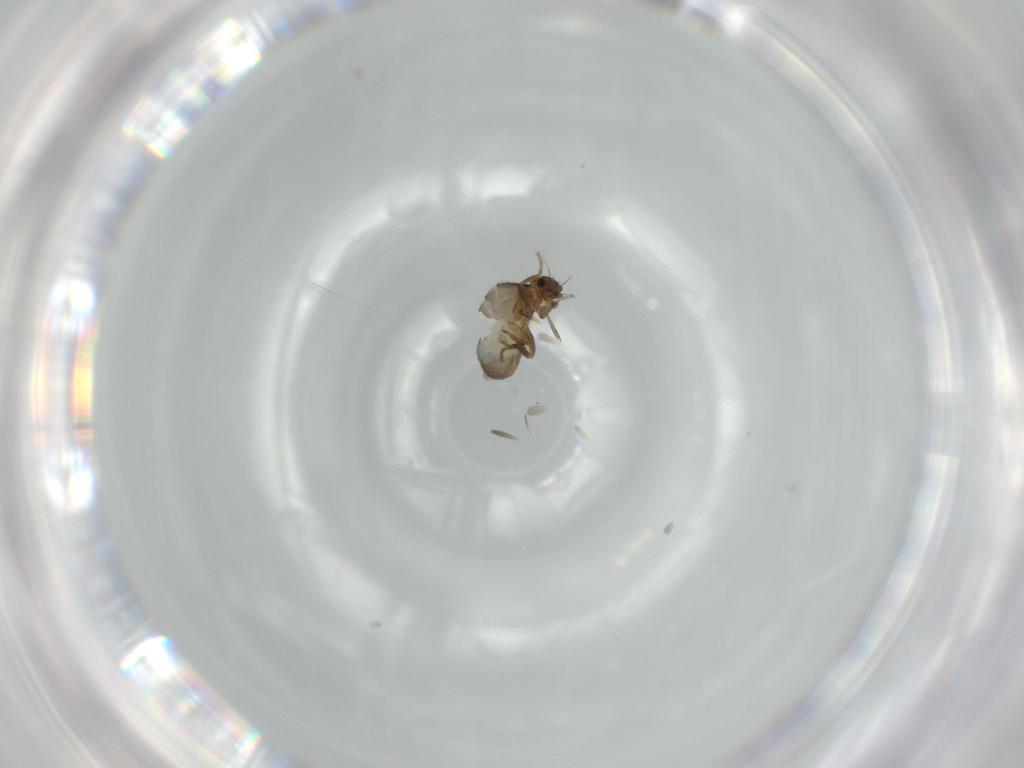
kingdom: Animalia
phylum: Arthropoda
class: Insecta
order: Diptera
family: Phoridae
